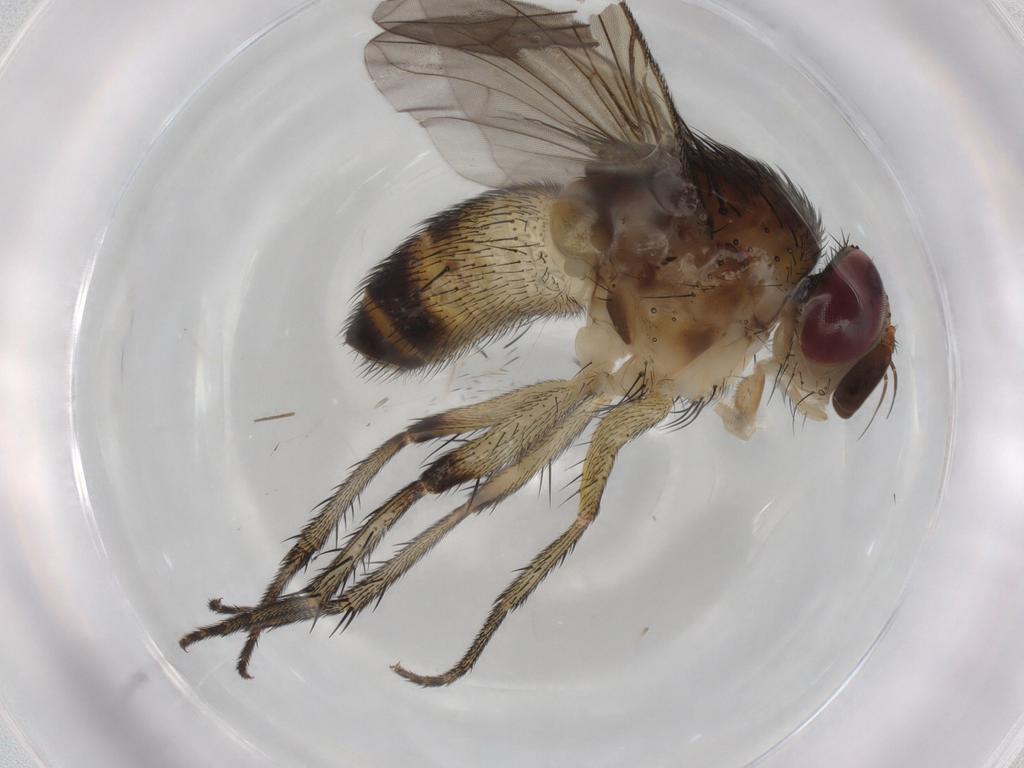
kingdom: Animalia
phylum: Arthropoda
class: Insecta
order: Diptera
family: Tachinidae
